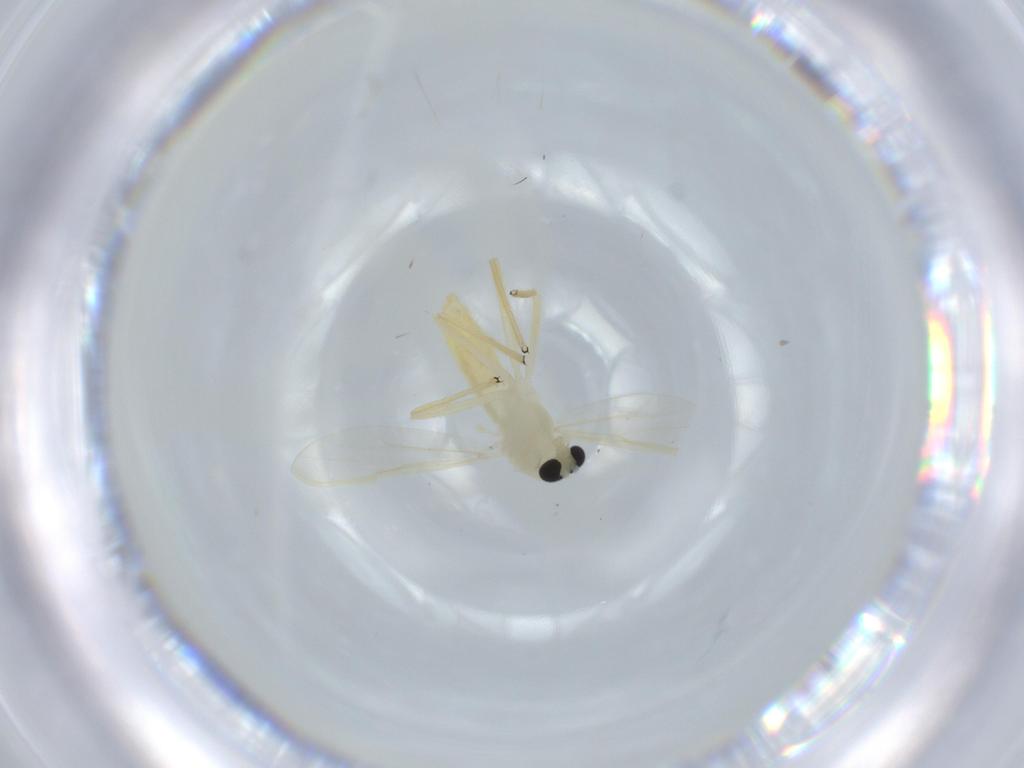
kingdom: Animalia
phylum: Arthropoda
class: Insecta
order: Diptera
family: Chironomidae
